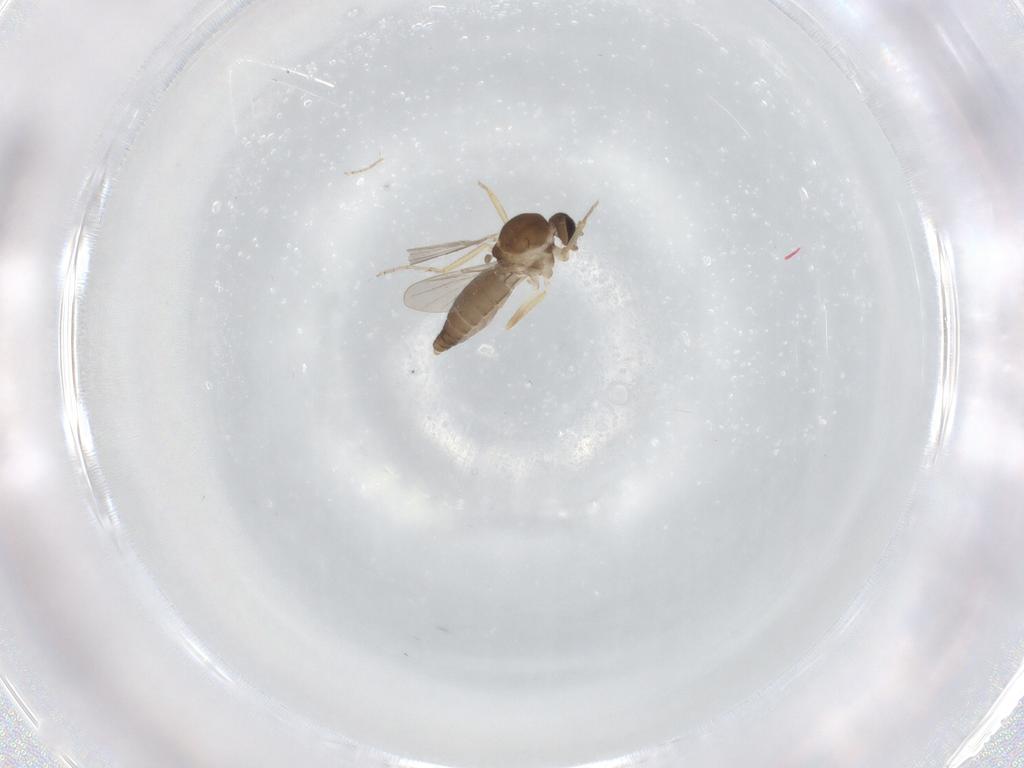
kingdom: Animalia
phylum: Arthropoda
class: Insecta
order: Diptera
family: Ceratopogonidae
